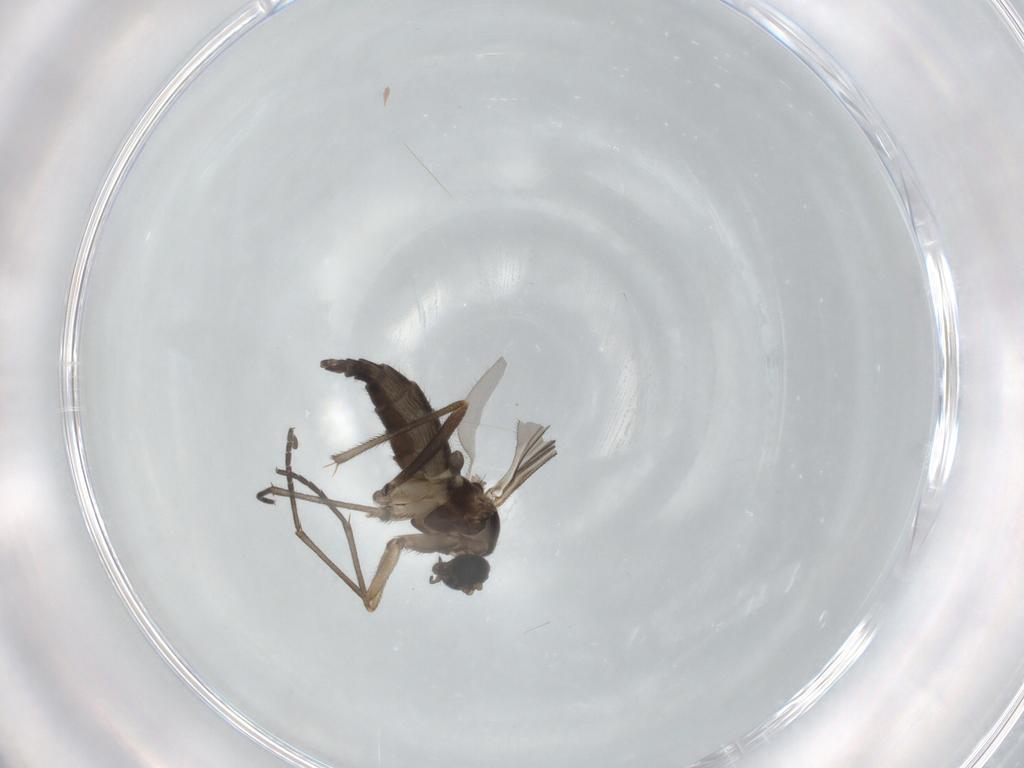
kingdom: Animalia
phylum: Arthropoda
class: Insecta
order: Diptera
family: Sciaridae
